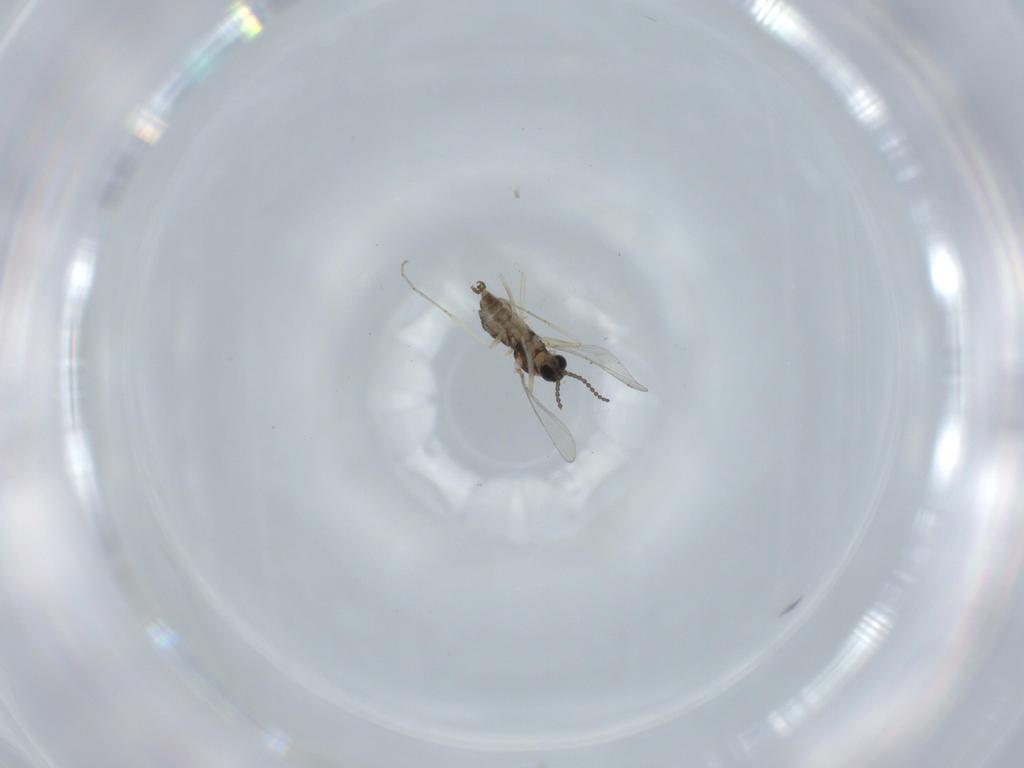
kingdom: Animalia
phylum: Arthropoda
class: Insecta
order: Diptera
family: Cecidomyiidae
